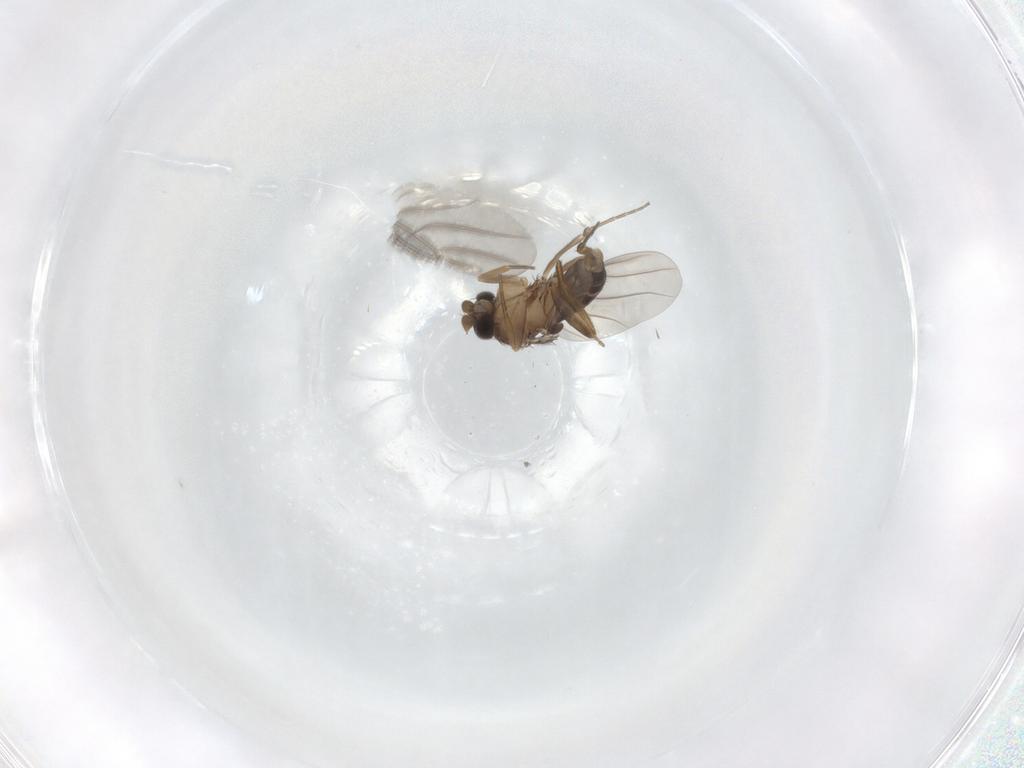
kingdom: Animalia
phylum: Arthropoda
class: Insecta
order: Diptera
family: Phoridae
